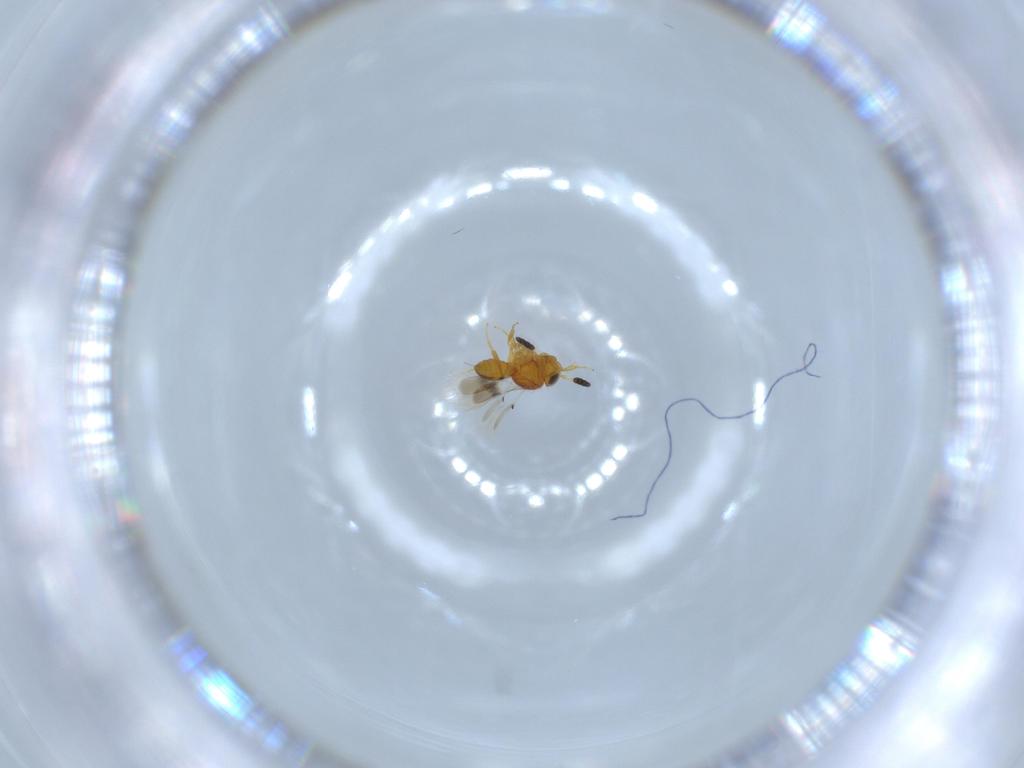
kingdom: Animalia
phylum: Arthropoda
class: Insecta
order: Hymenoptera
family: Scelionidae
